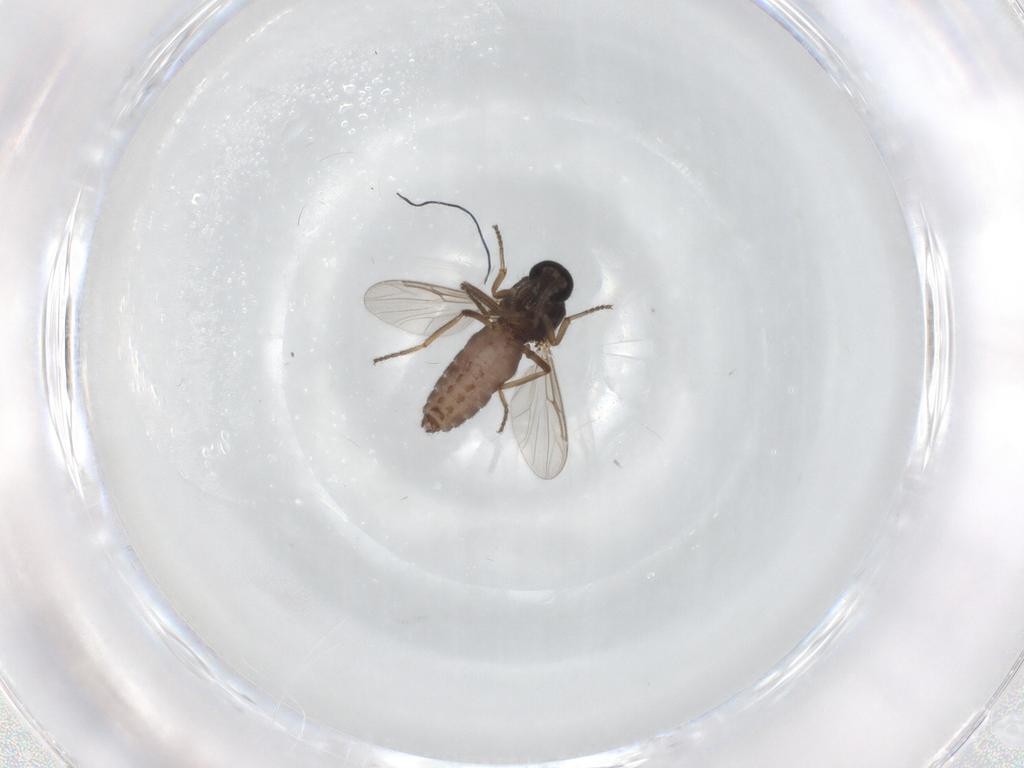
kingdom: Animalia
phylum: Arthropoda
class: Insecta
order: Diptera
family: Ceratopogonidae
